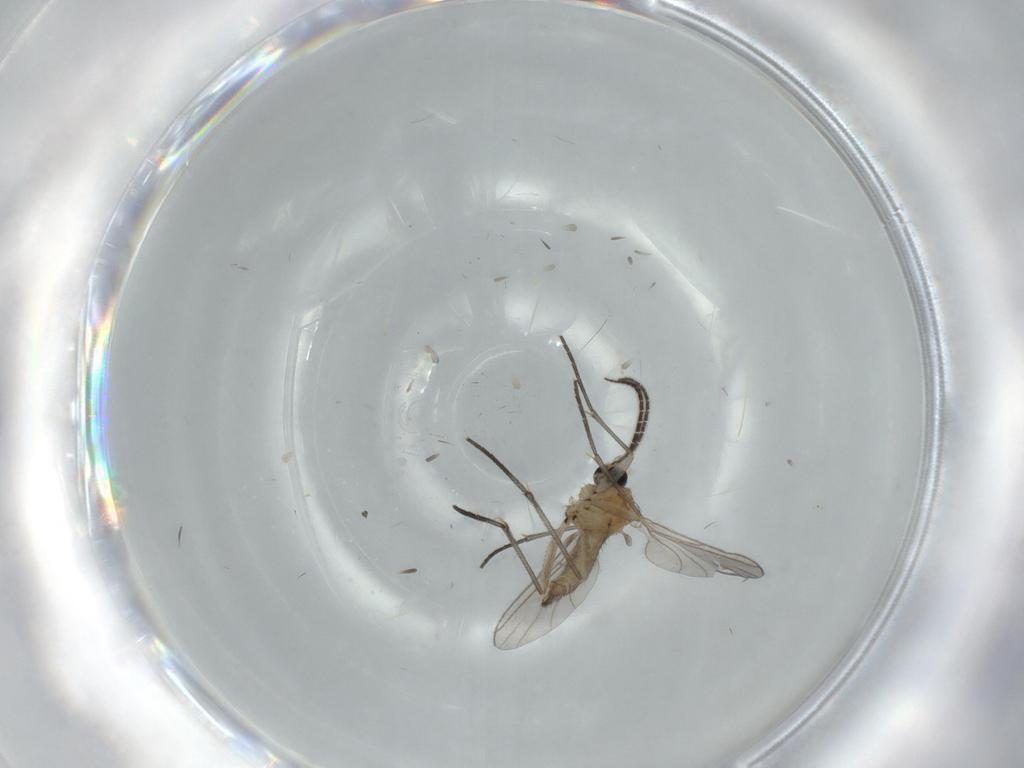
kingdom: Animalia
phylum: Arthropoda
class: Insecta
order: Diptera
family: Sciaridae
